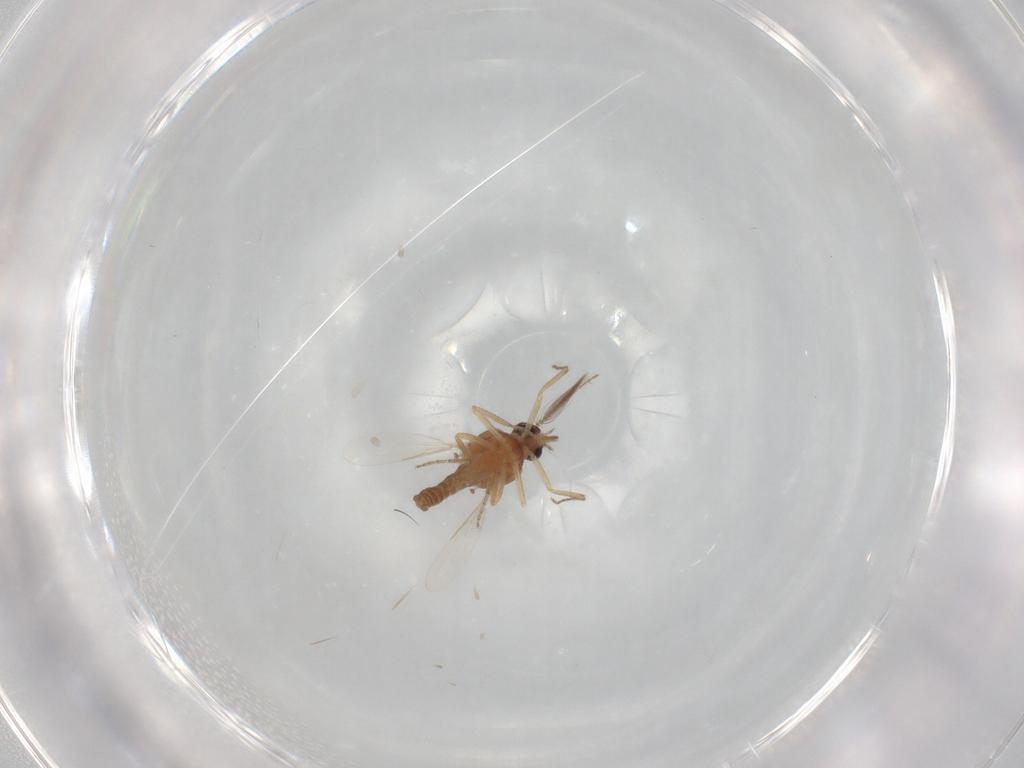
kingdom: Animalia
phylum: Arthropoda
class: Insecta
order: Diptera
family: Ceratopogonidae
